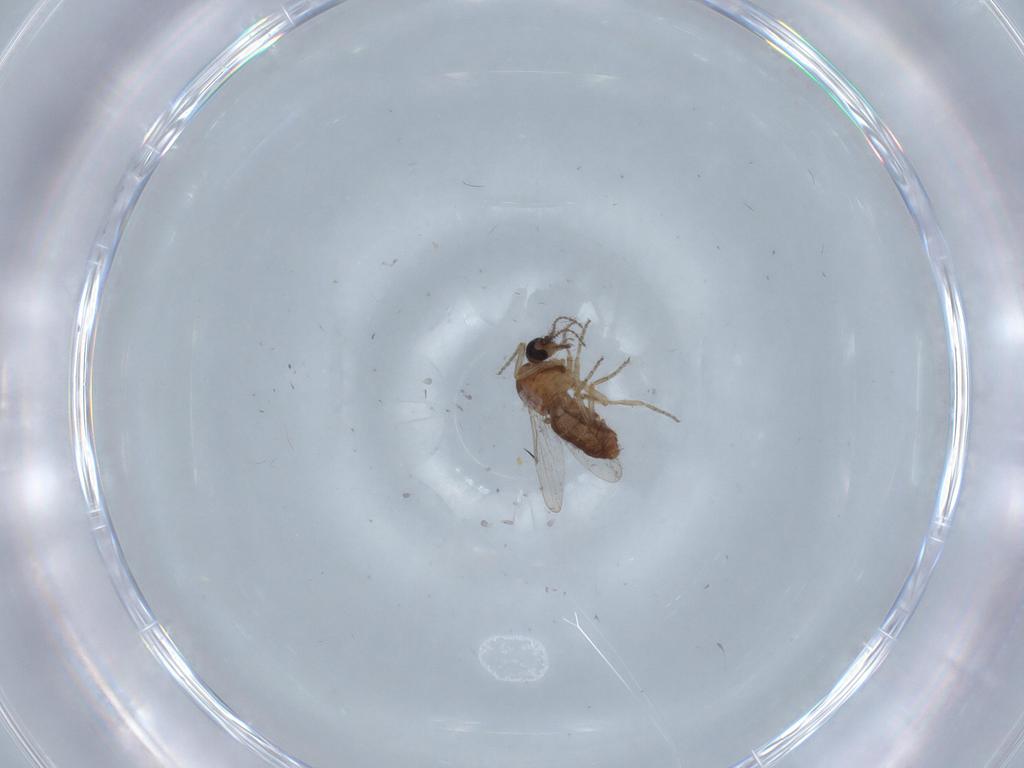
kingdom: Animalia
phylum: Arthropoda
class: Insecta
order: Diptera
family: Ceratopogonidae
